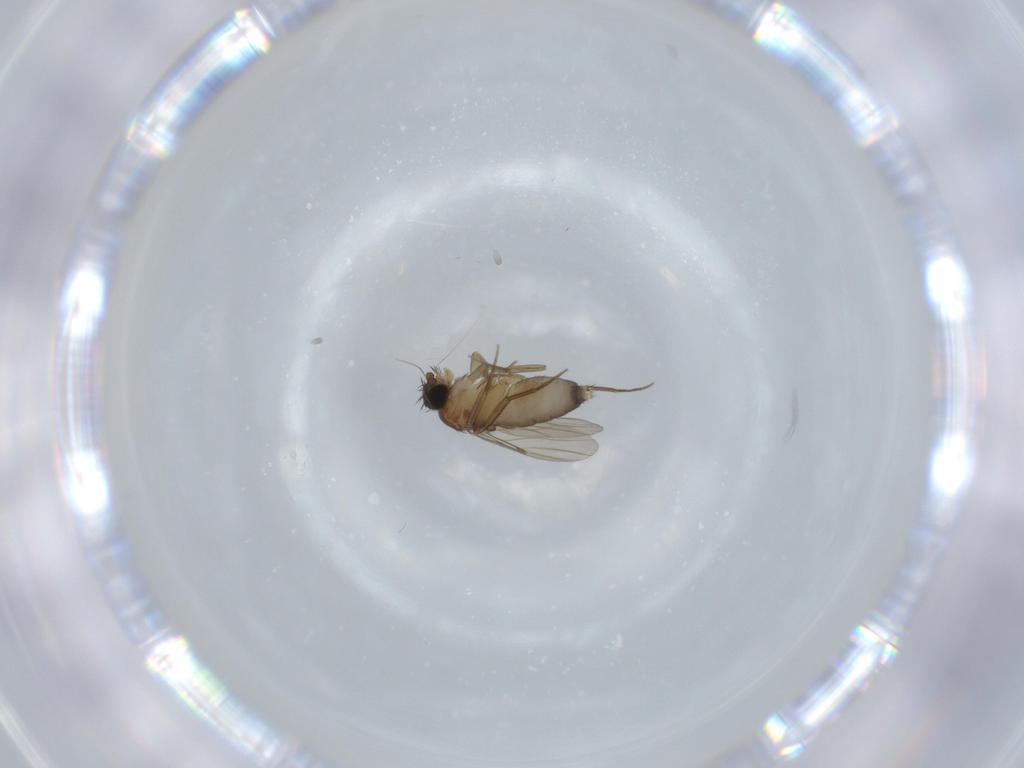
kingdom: Animalia
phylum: Arthropoda
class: Insecta
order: Diptera
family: Phoridae
